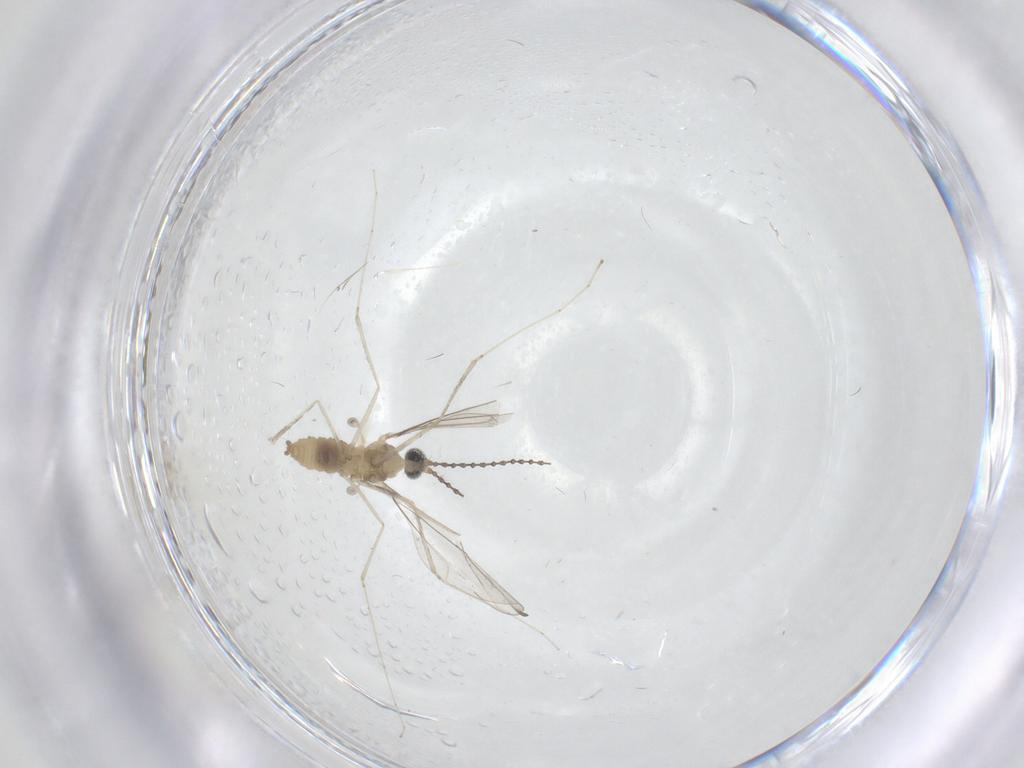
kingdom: Animalia
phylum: Arthropoda
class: Insecta
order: Diptera
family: Cecidomyiidae
